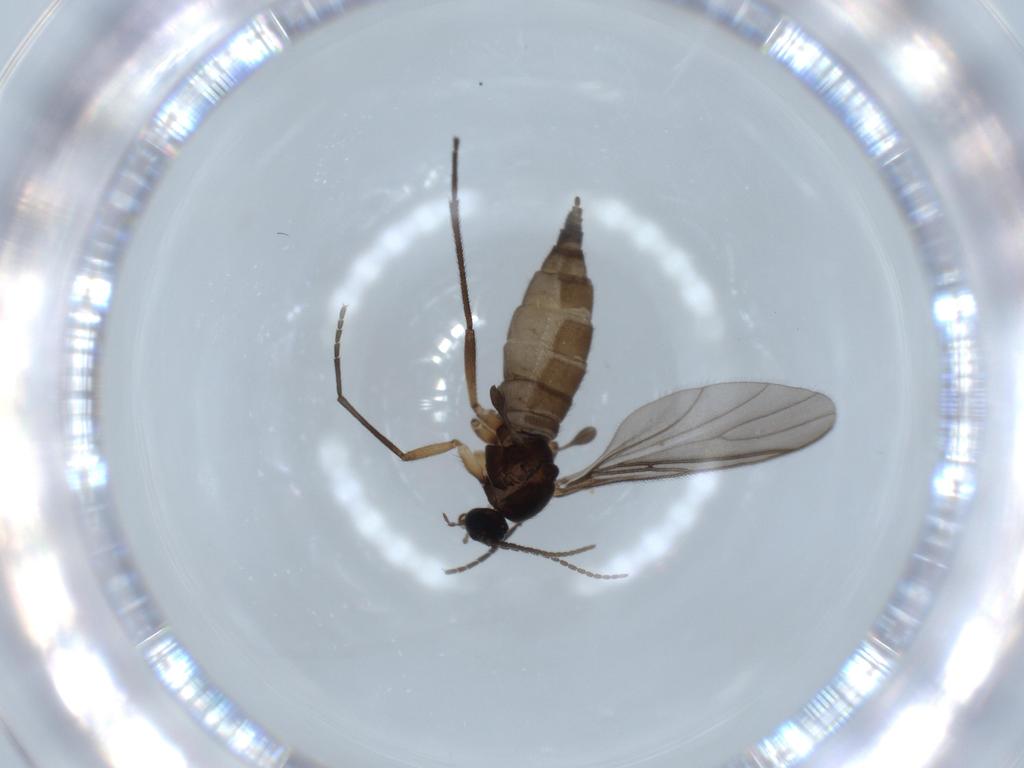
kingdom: Animalia
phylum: Arthropoda
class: Insecta
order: Diptera
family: Sciaridae
